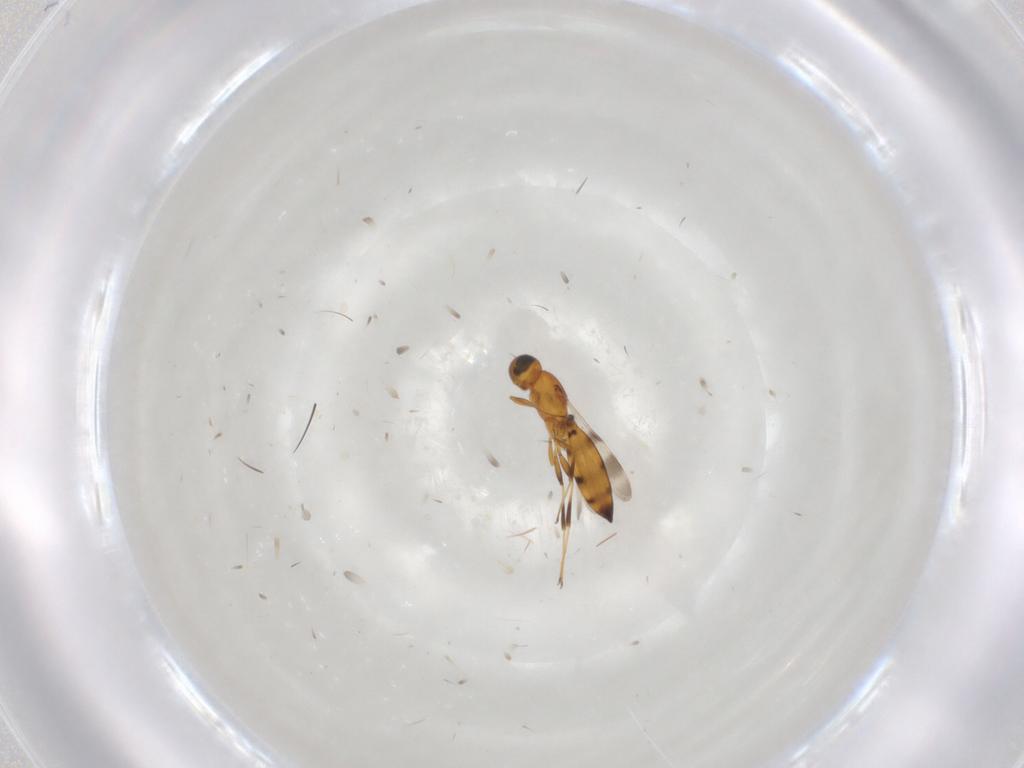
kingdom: Animalia
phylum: Arthropoda
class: Insecta
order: Hymenoptera
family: Scelionidae
